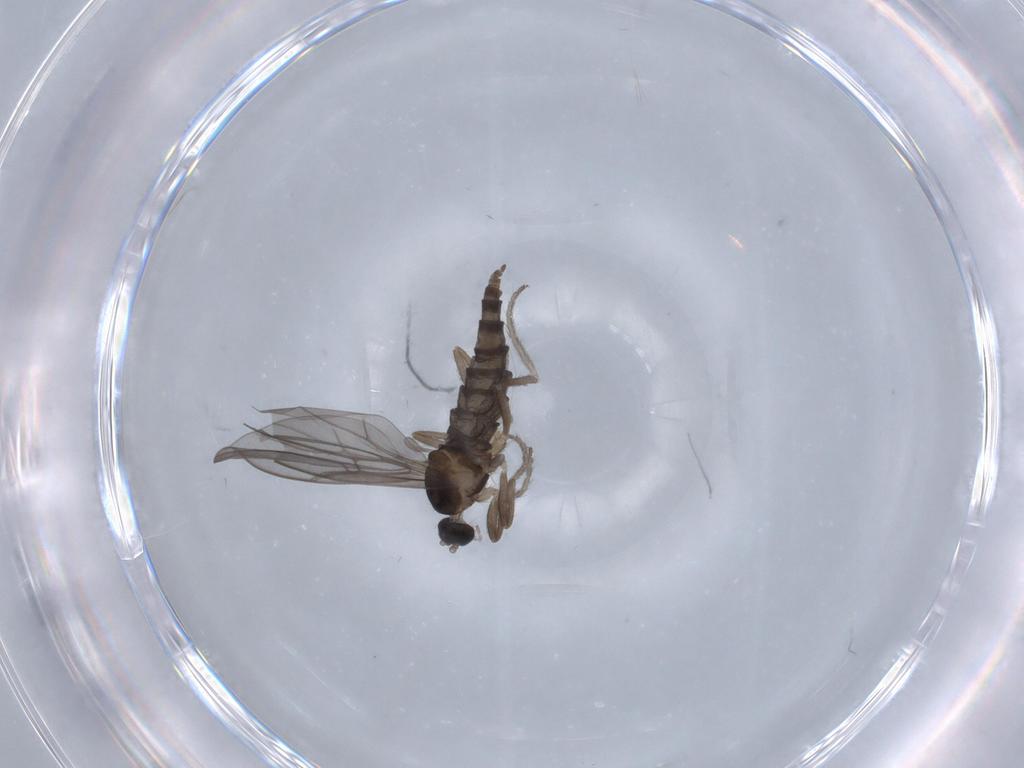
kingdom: Animalia
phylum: Arthropoda
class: Insecta
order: Diptera
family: Cecidomyiidae
